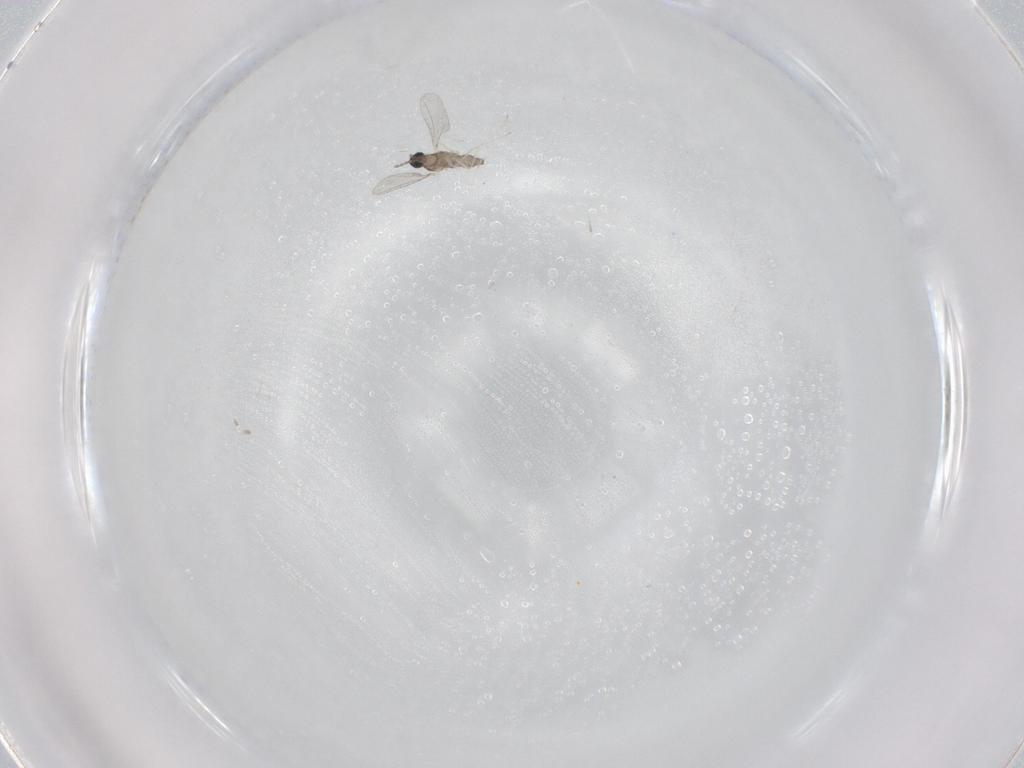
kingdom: Animalia
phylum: Arthropoda
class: Insecta
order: Diptera
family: Cecidomyiidae
